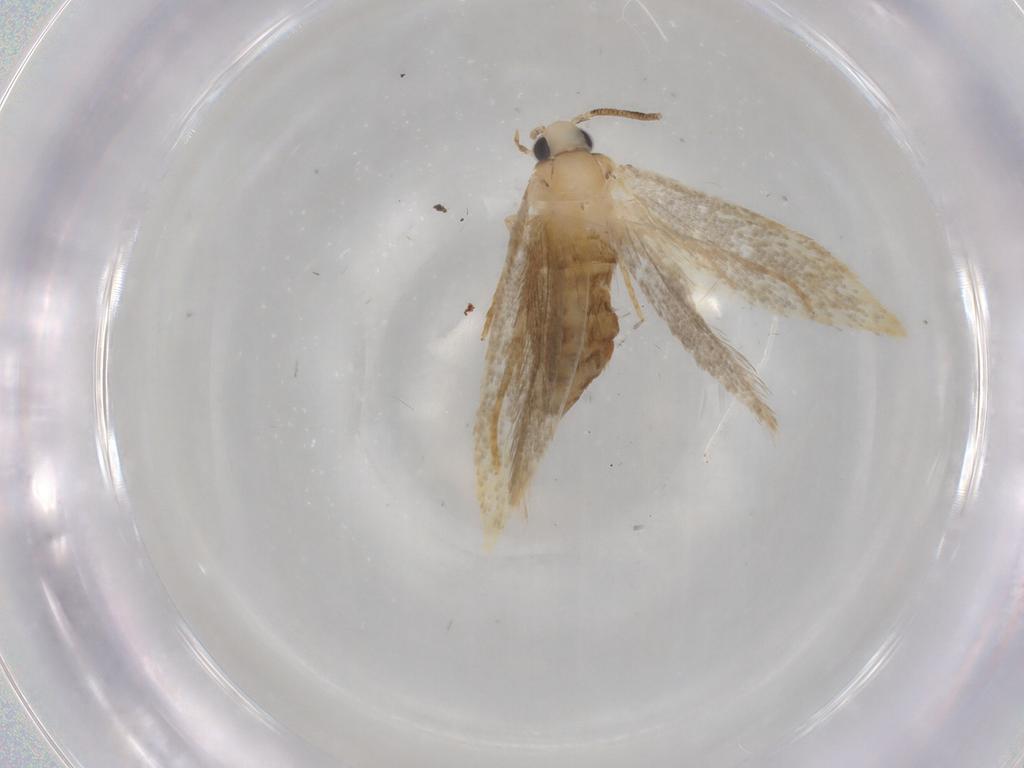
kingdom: Animalia
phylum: Arthropoda
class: Insecta
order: Lepidoptera
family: Tineidae
